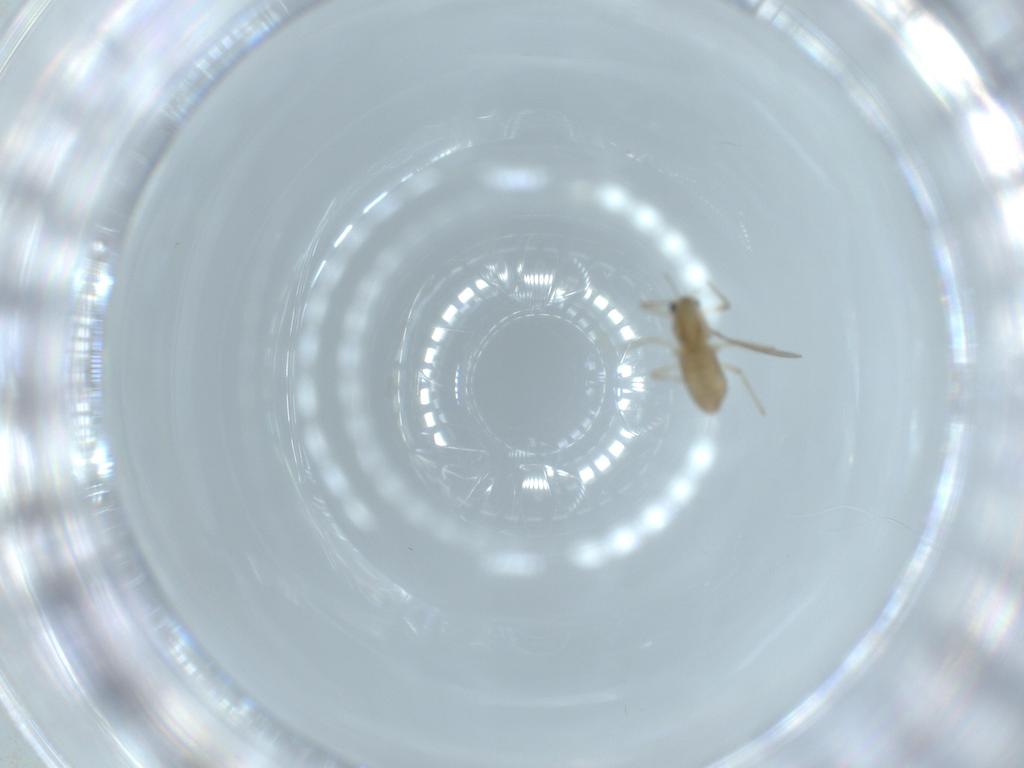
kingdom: Animalia
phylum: Arthropoda
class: Insecta
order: Diptera
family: Chironomidae
